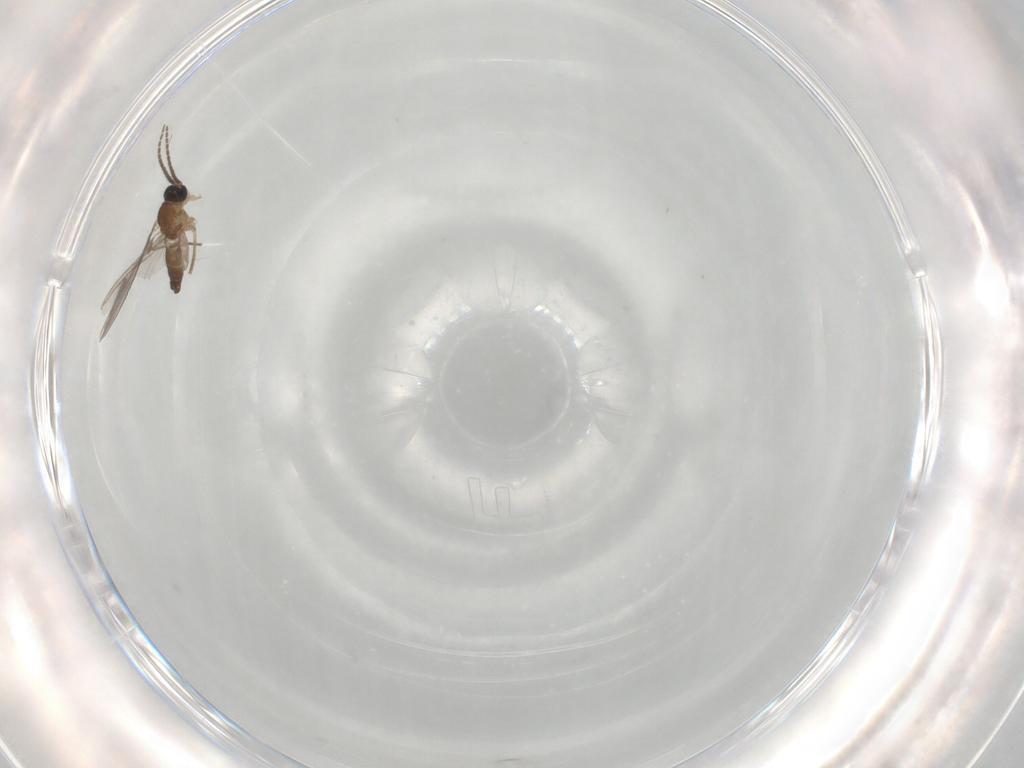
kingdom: Animalia
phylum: Arthropoda
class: Insecta
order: Diptera
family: Sciaridae
